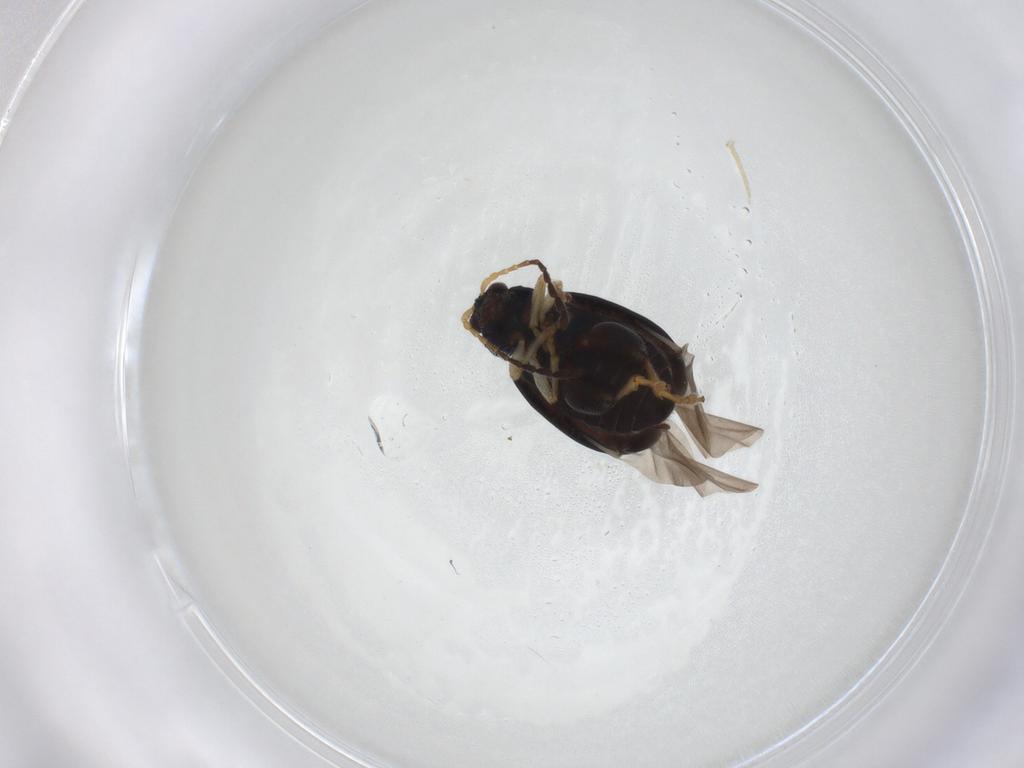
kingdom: Animalia
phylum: Arthropoda
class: Insecta
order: Coleoptera
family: Chrysomelidae
